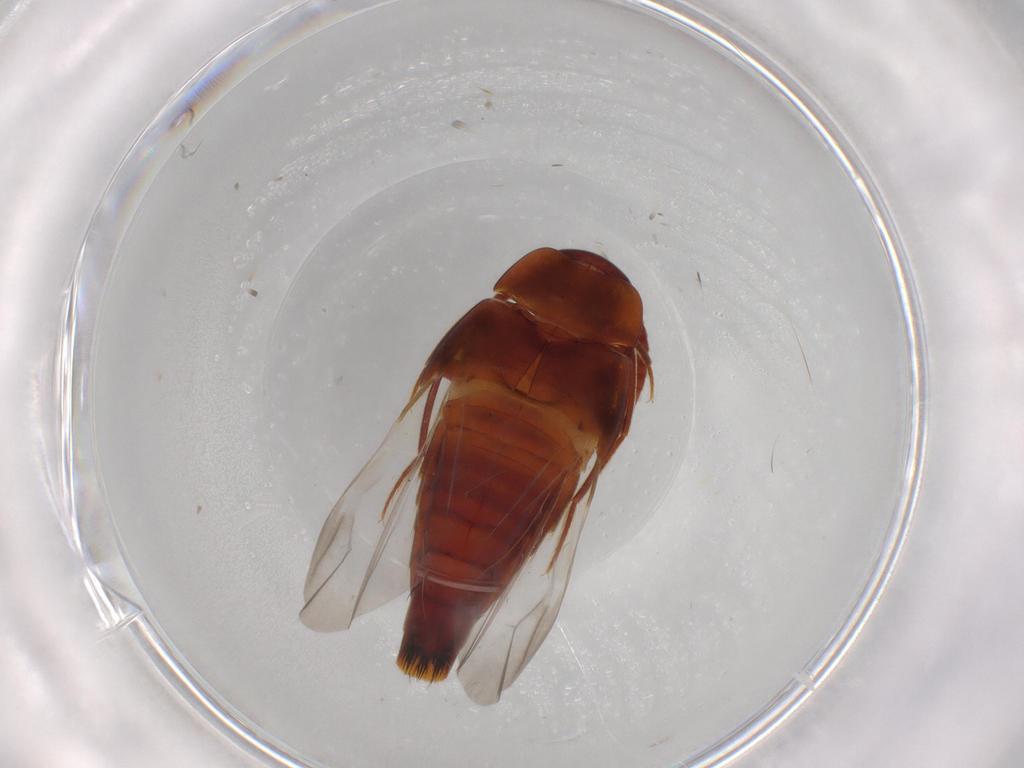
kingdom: Animalia
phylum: Arthropoda
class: Insecta
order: Coleoptera
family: Staphylinidae
